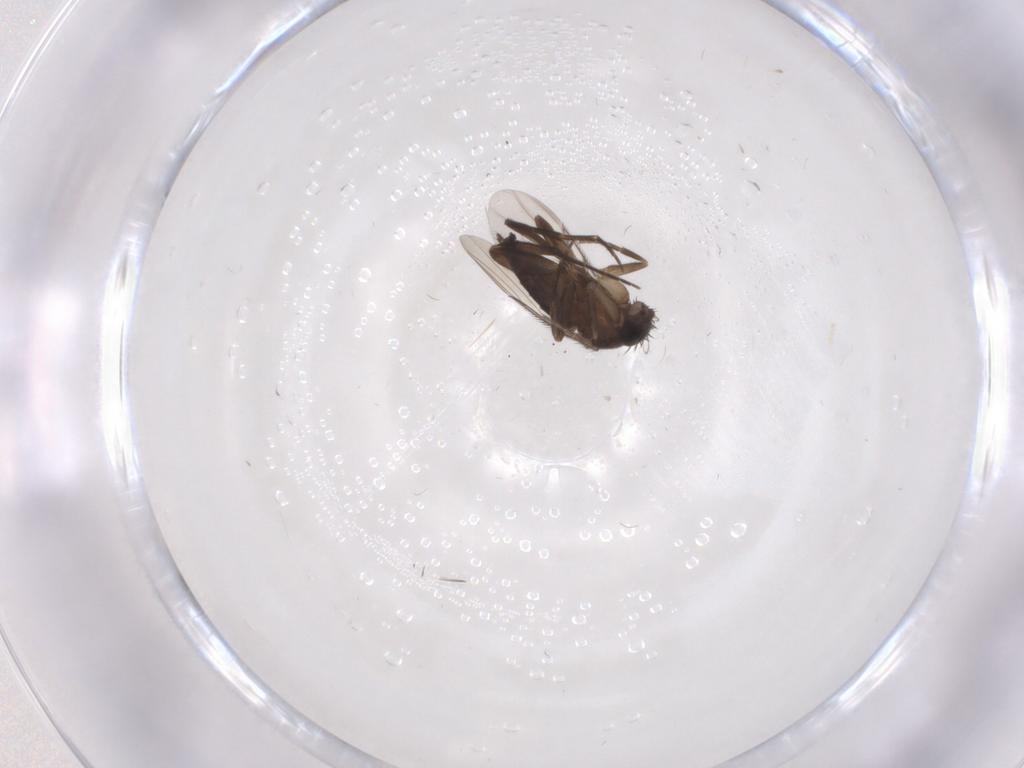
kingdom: Animalia
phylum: Arthropoda
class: Insecta
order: Diptera
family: Phoridae
